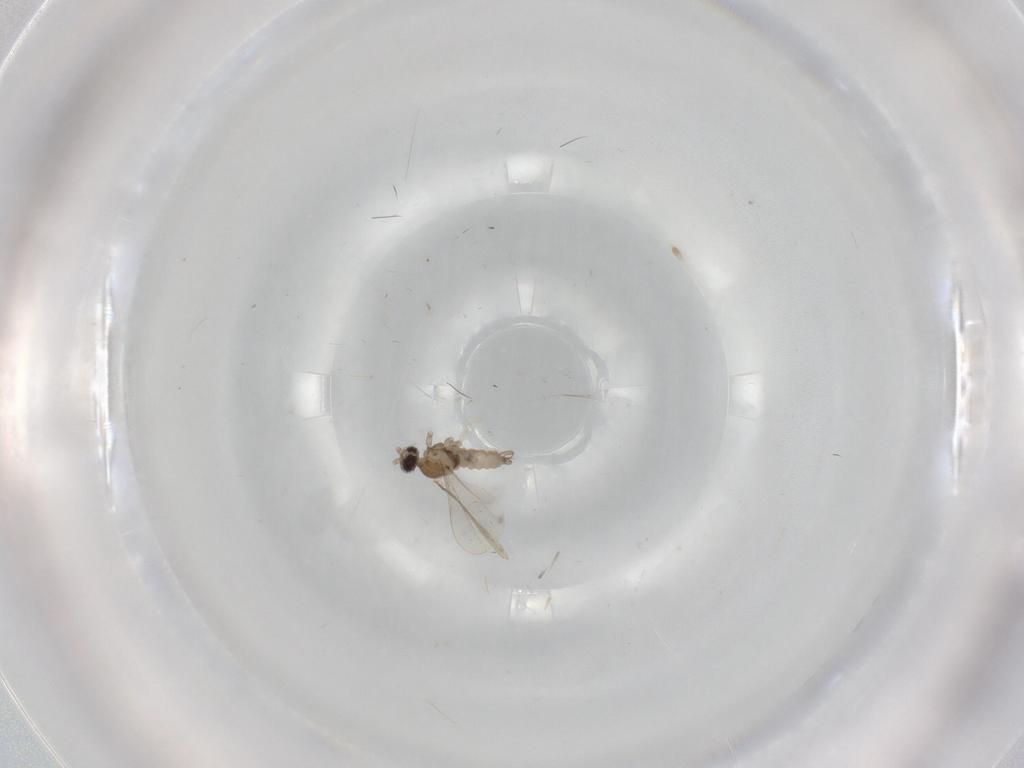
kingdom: Animalia
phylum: Arthropoda
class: Insecta
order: Diptera
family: Cecidomyiidae
